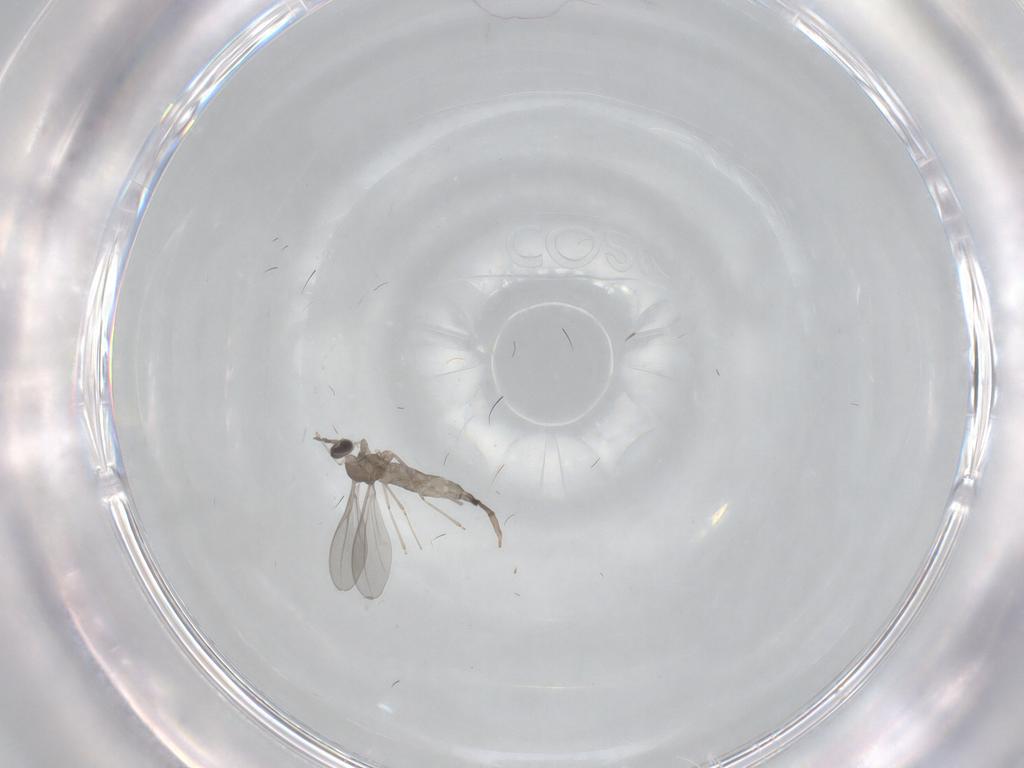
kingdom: Animalia
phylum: Arthropoda
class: Insecta
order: Diptera
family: Cecidomyiidae
